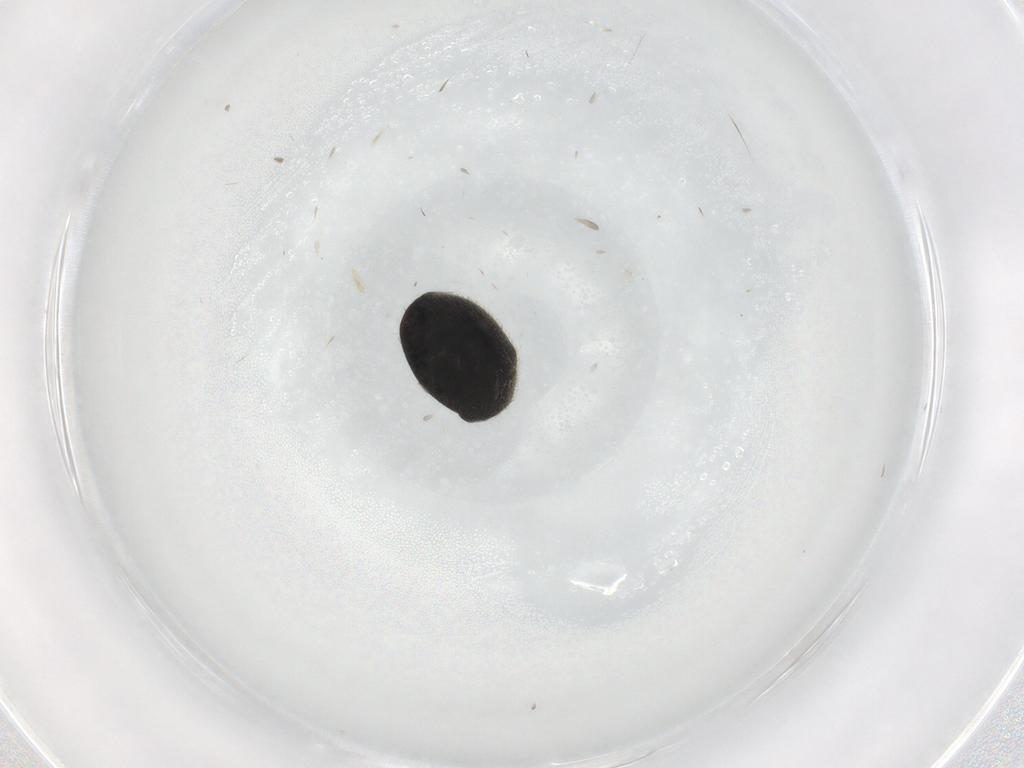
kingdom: Animalia
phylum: Arthropoda
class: Insecta
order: Coleoptera
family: Coccinellidae
